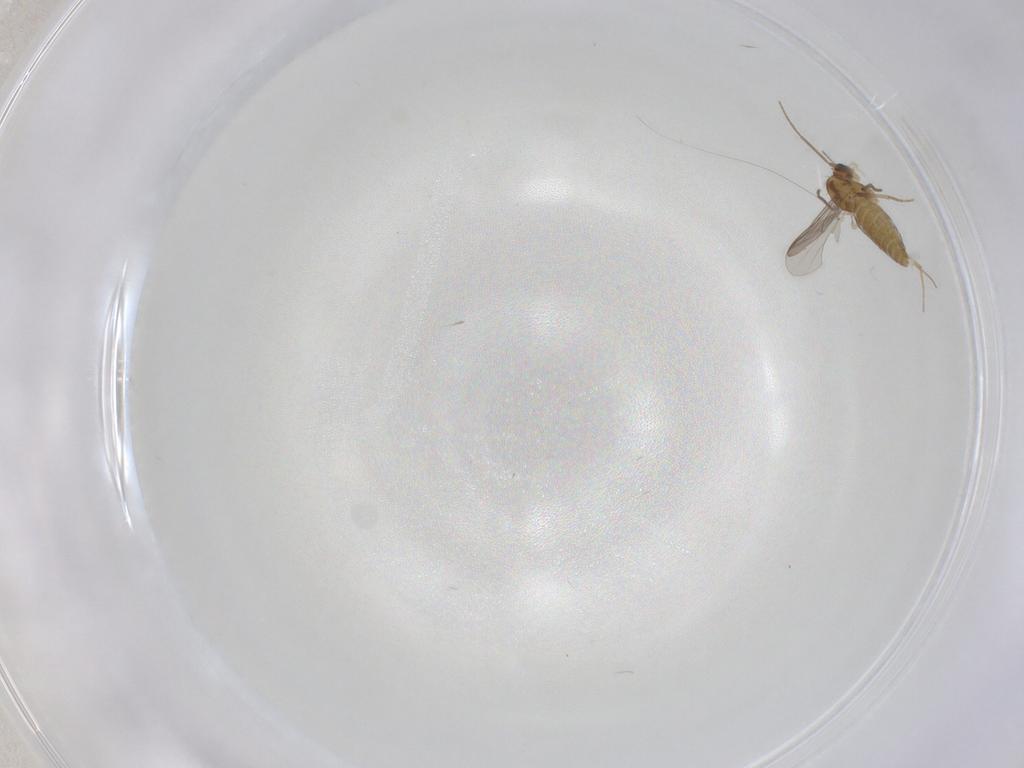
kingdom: Animalia
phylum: Arthropoda
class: Insecta
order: Diptera
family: Chironomidae
